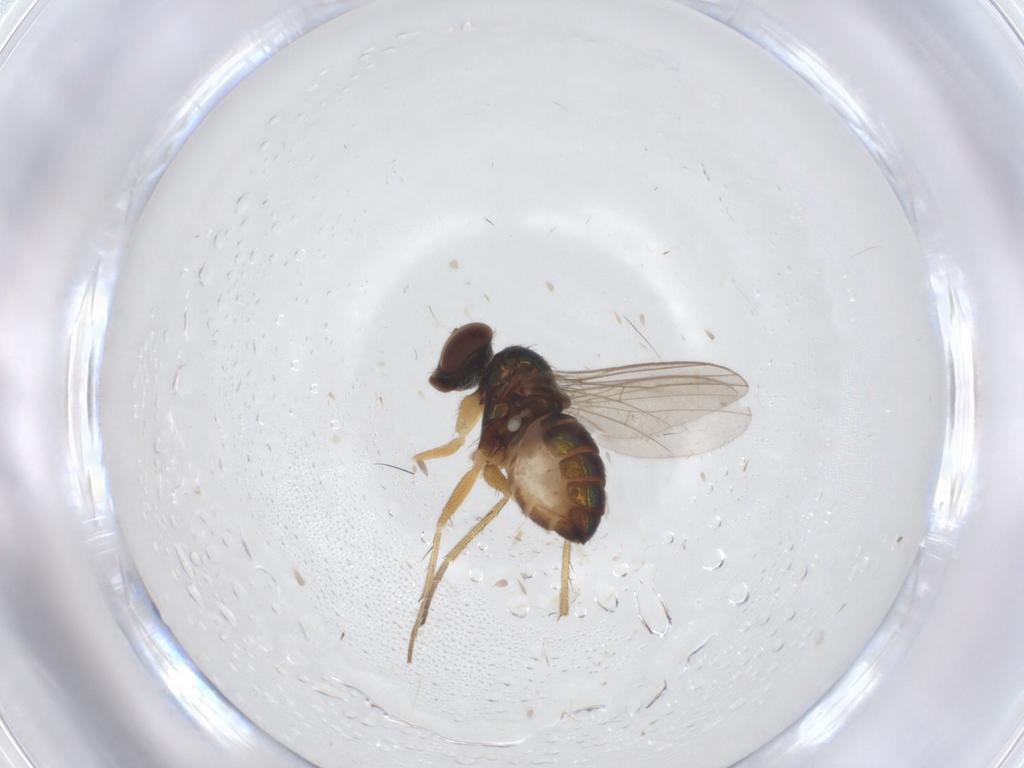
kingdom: Animalia
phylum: Arthropoda
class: Insecta
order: Diptera
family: Dolichopodidae
